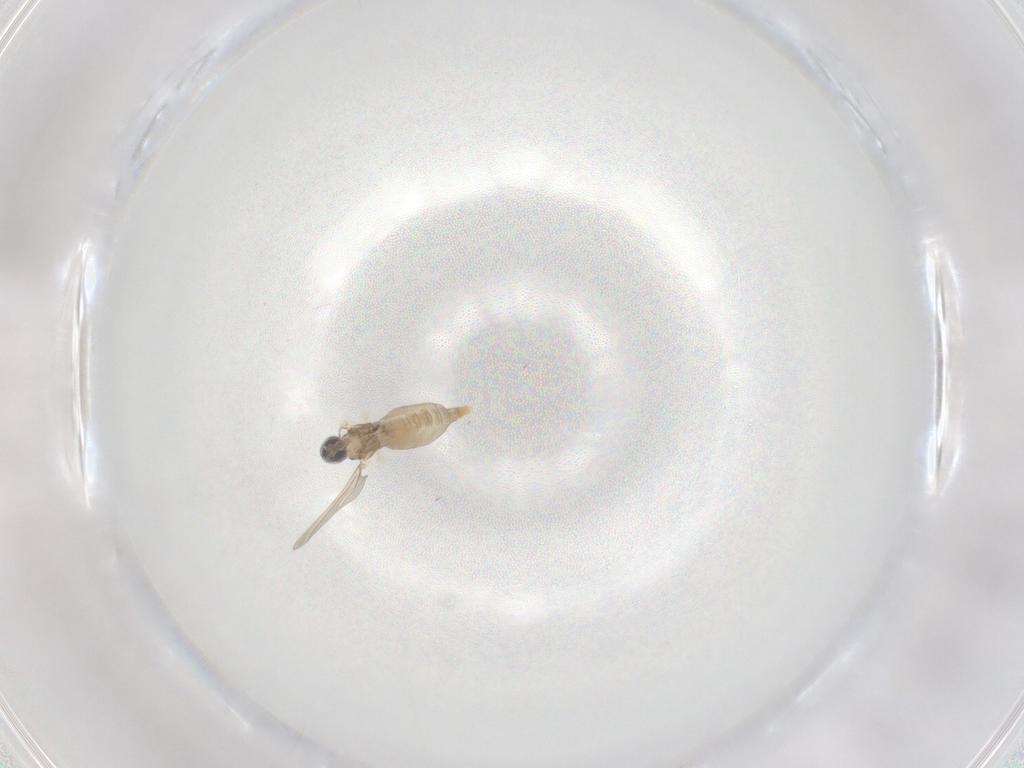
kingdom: Animalia
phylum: Arthropoda
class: Insecta
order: Diptera
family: Cecidomyiidae
